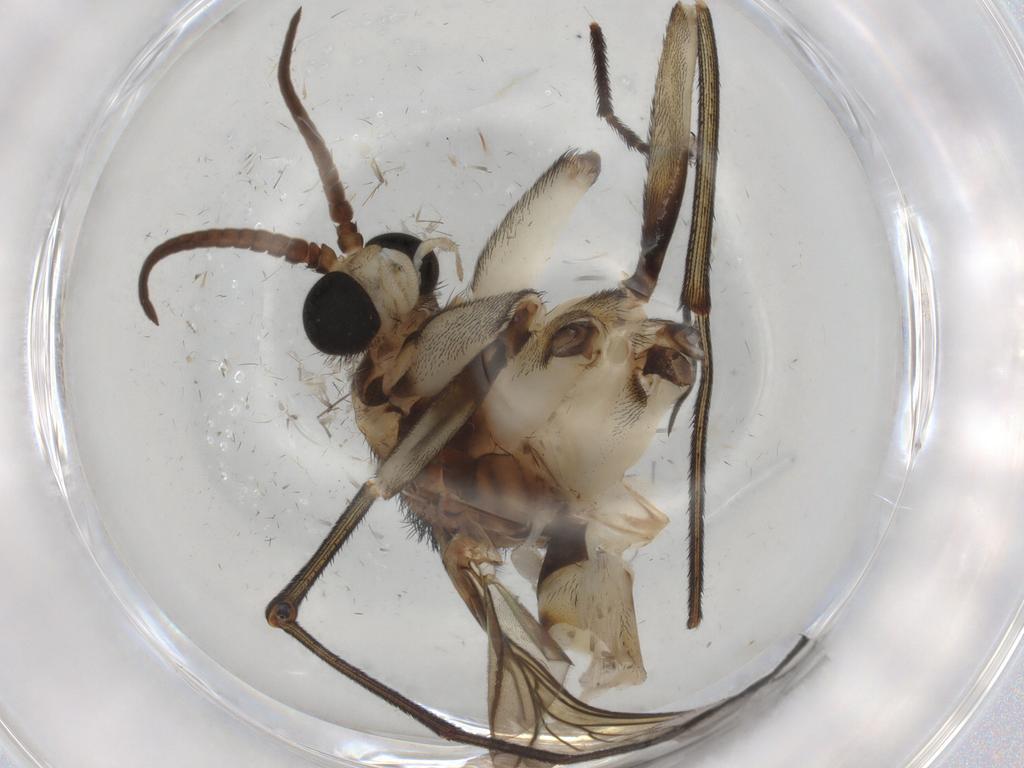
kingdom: Animalia
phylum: Arthropoda
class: Insecta
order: Diptera
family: Keroplatidae
